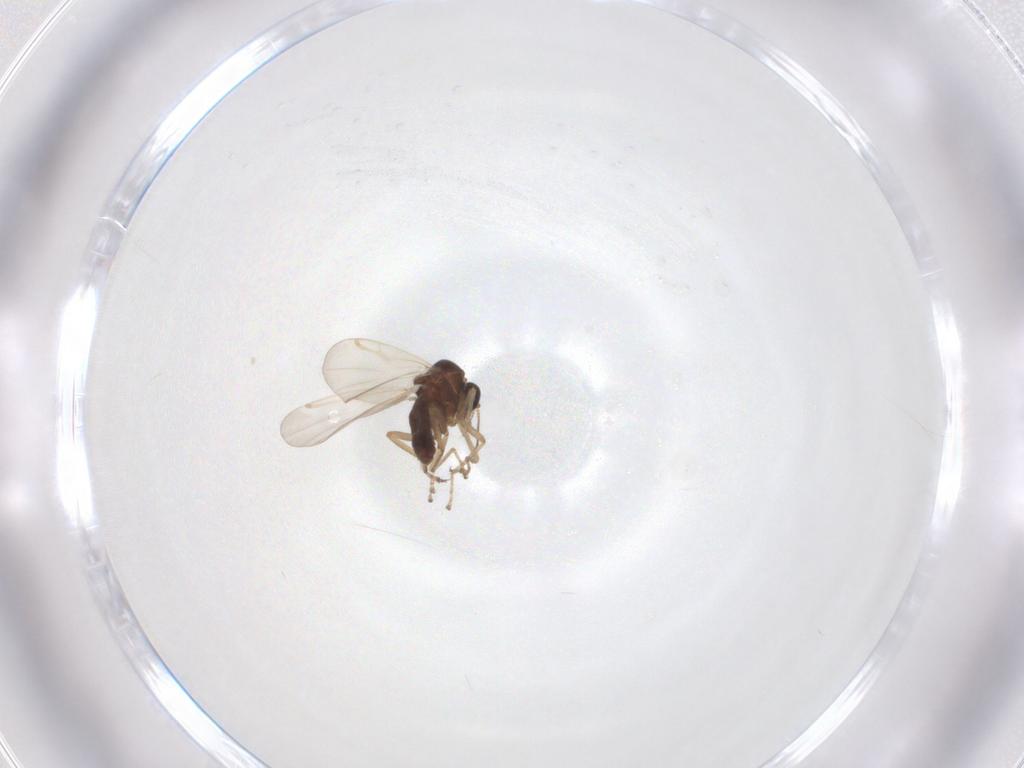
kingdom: Animalia
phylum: Arthropoda
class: Insecta
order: Diptera
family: Ceratopogonidae
